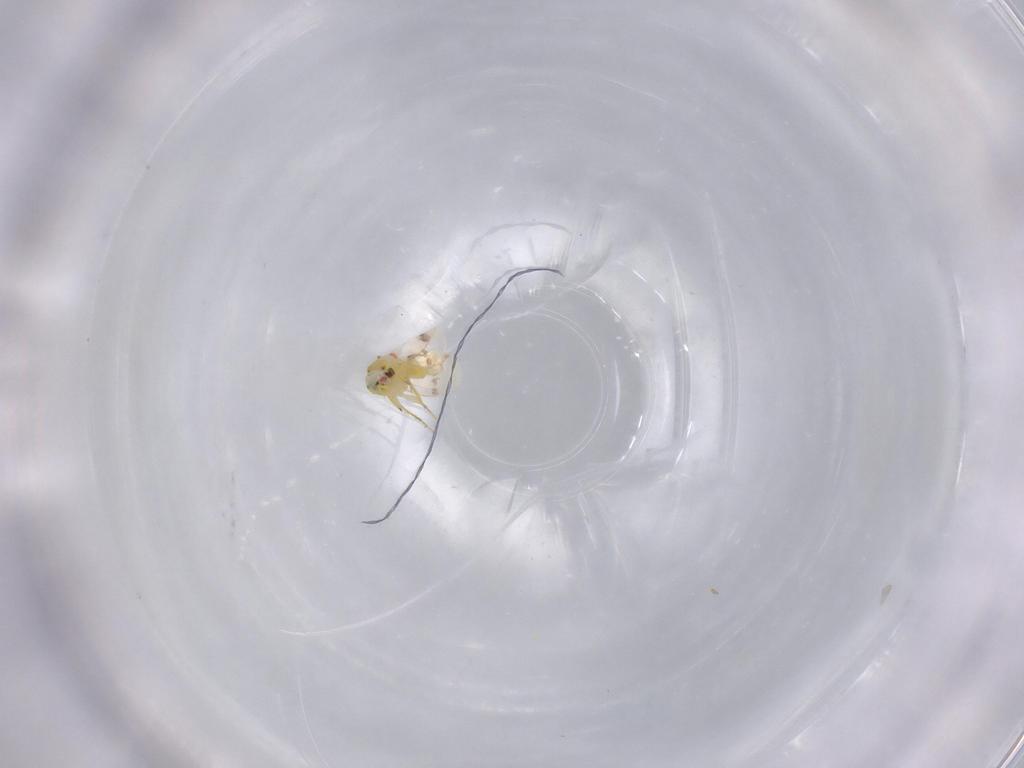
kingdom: Animalia
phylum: Arthropoda
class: Insecta
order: Hemiptera
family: Aleyrodidae
